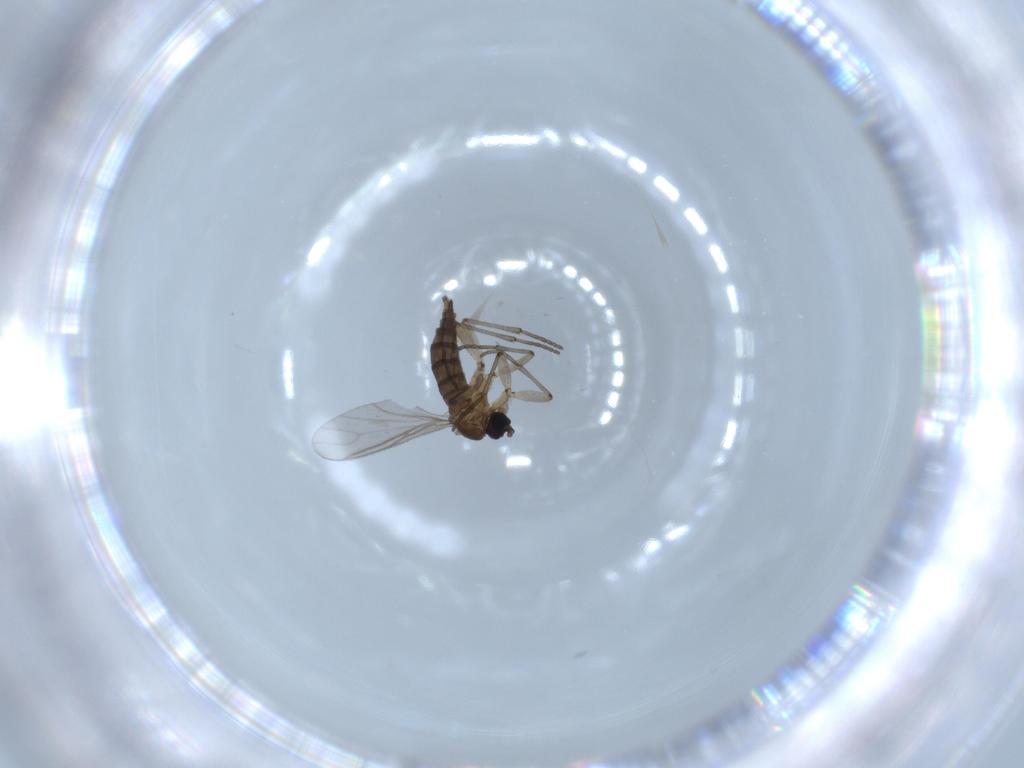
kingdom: Animalia
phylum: Arthropoda
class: Insecta
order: Diptera
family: Sciaridae
